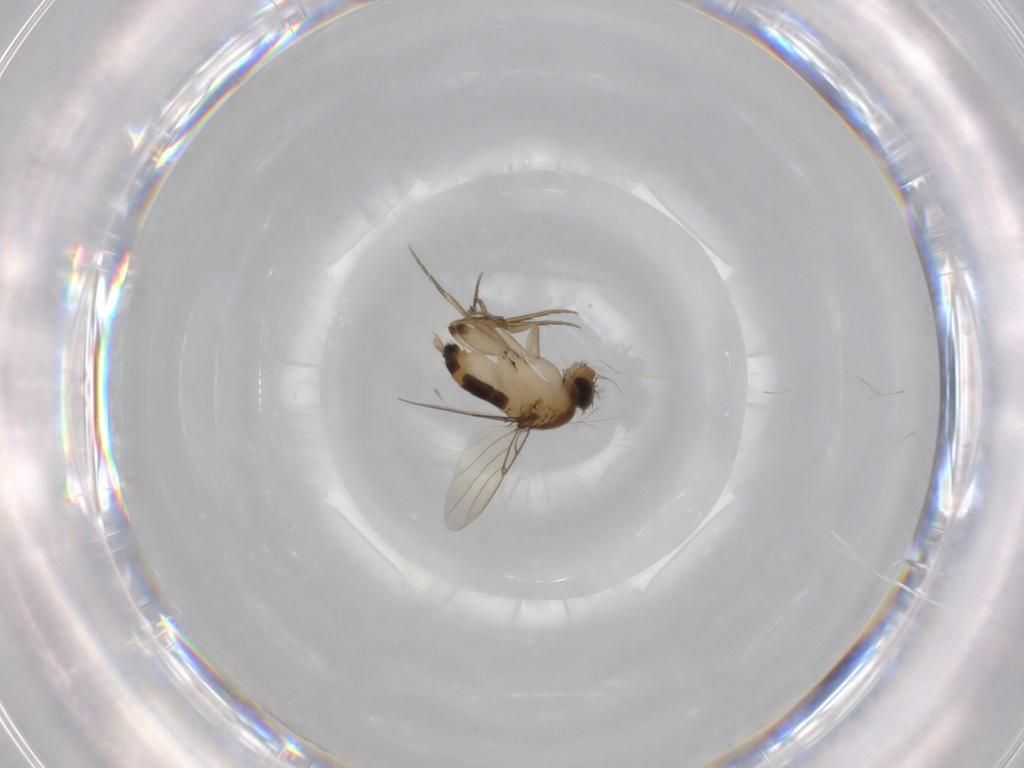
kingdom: Animalia
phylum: Arthropoda
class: Insecta
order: Diptera
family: Phoridae
